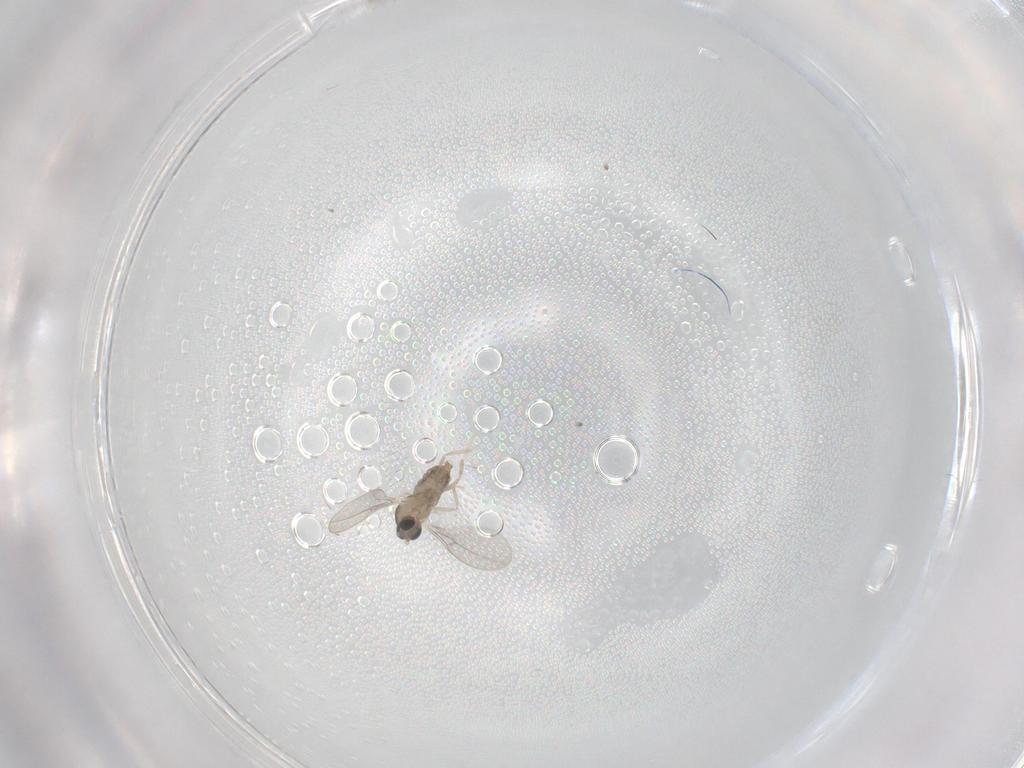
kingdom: Animalia
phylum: Arthropoda
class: Insecta
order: Diptera
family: Cecidomyiidae
